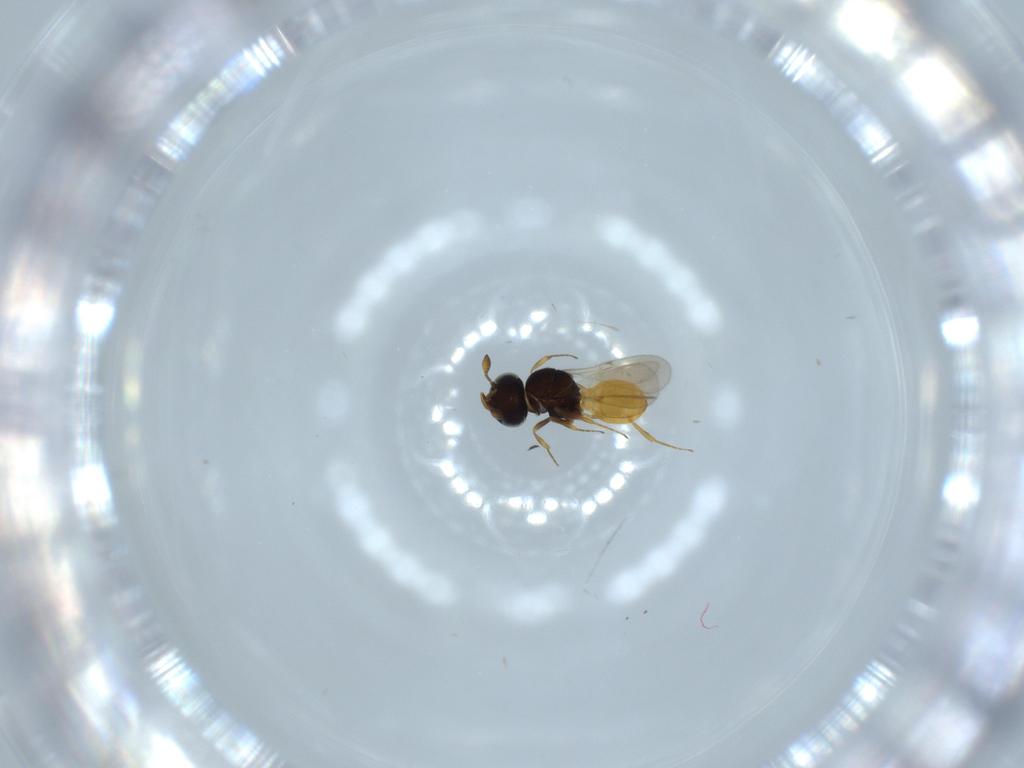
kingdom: Animalia
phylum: Arthropoda
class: Insecta
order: Hymenoptera
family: Scelionidae
